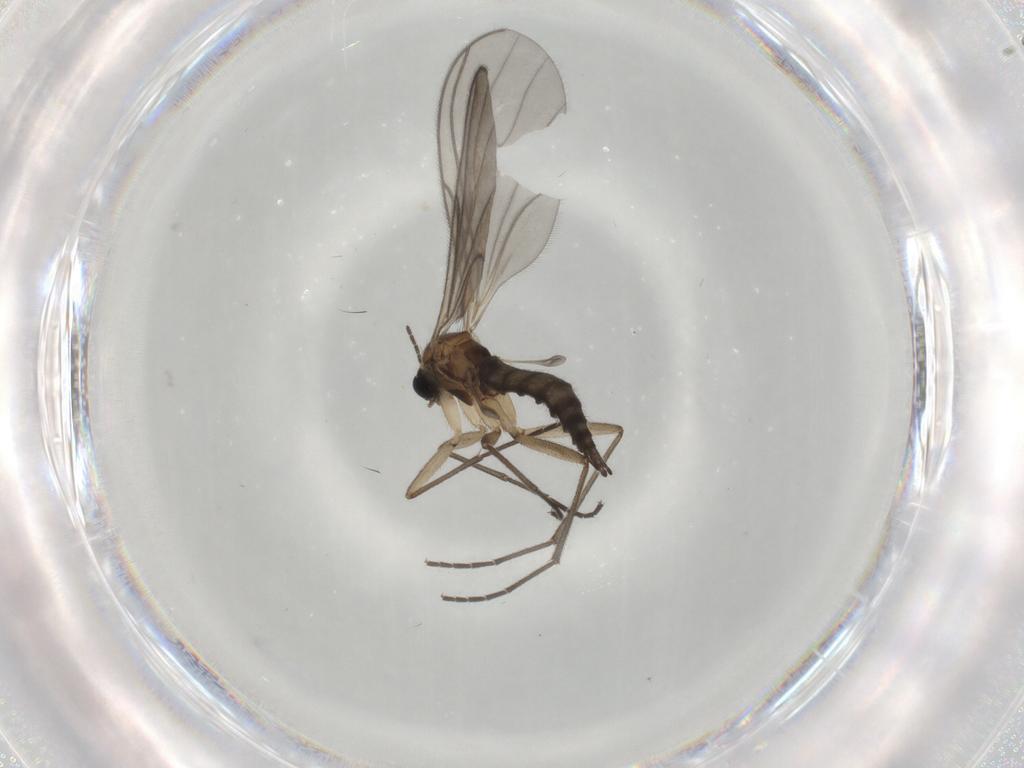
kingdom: Animalia
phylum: Arthropoda
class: Insecta
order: Diptera
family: Sciaridae
